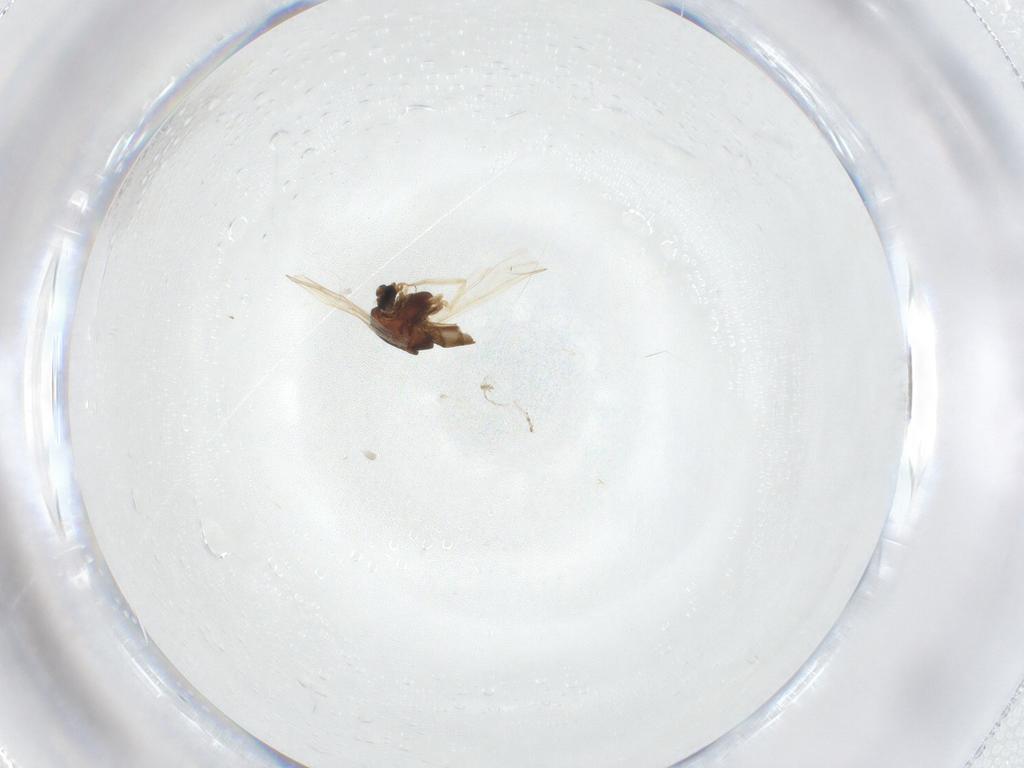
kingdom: Animalia
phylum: Arthropoda
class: Insecta
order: Diptera
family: Chironomidae
